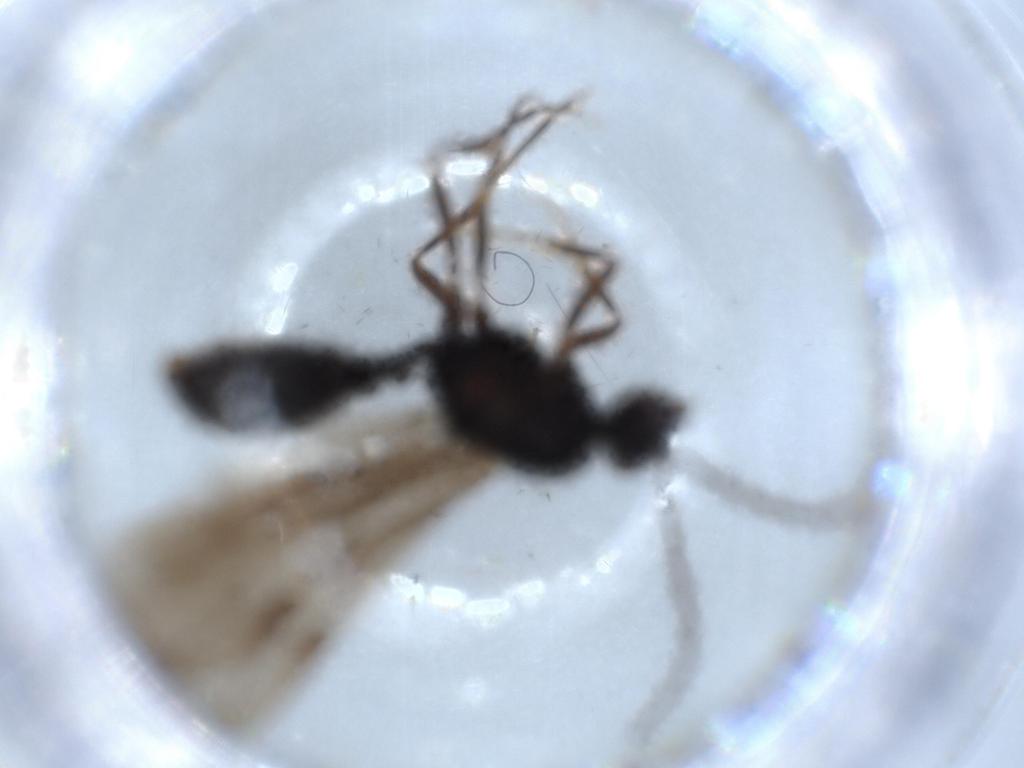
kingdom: Animalia
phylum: Arthropoda
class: Insecta
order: Hymenoptera
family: Formicidae
